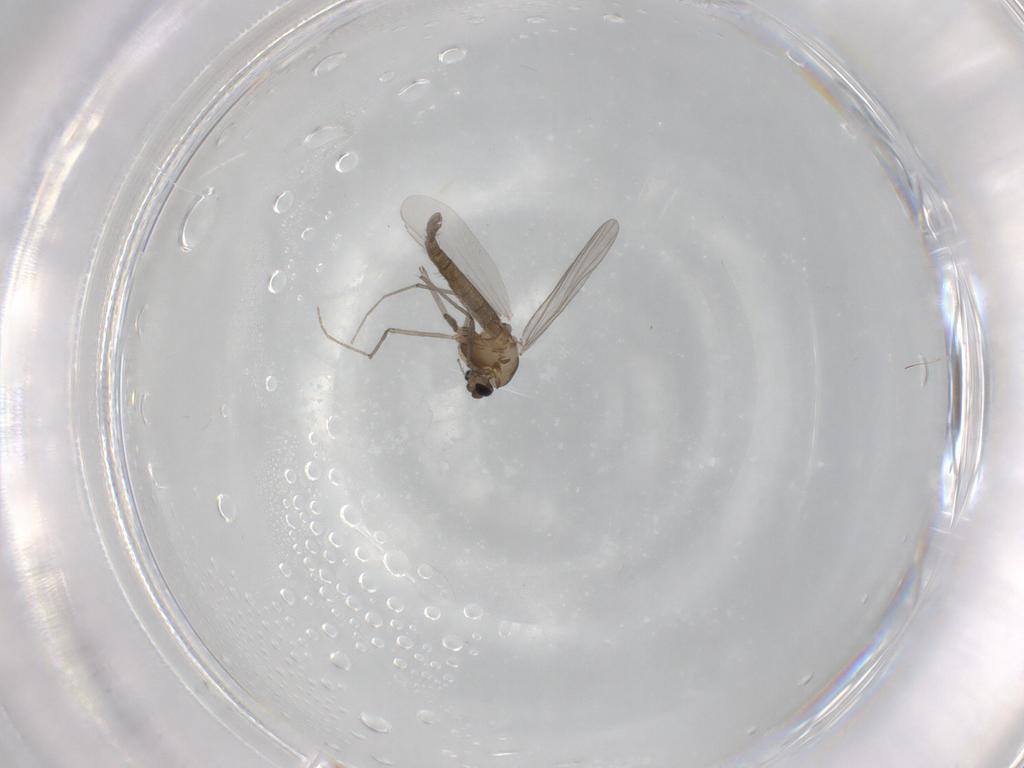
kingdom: Animalia
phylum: Arthropoda
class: Insecta
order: Diptera
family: Chironomidae
